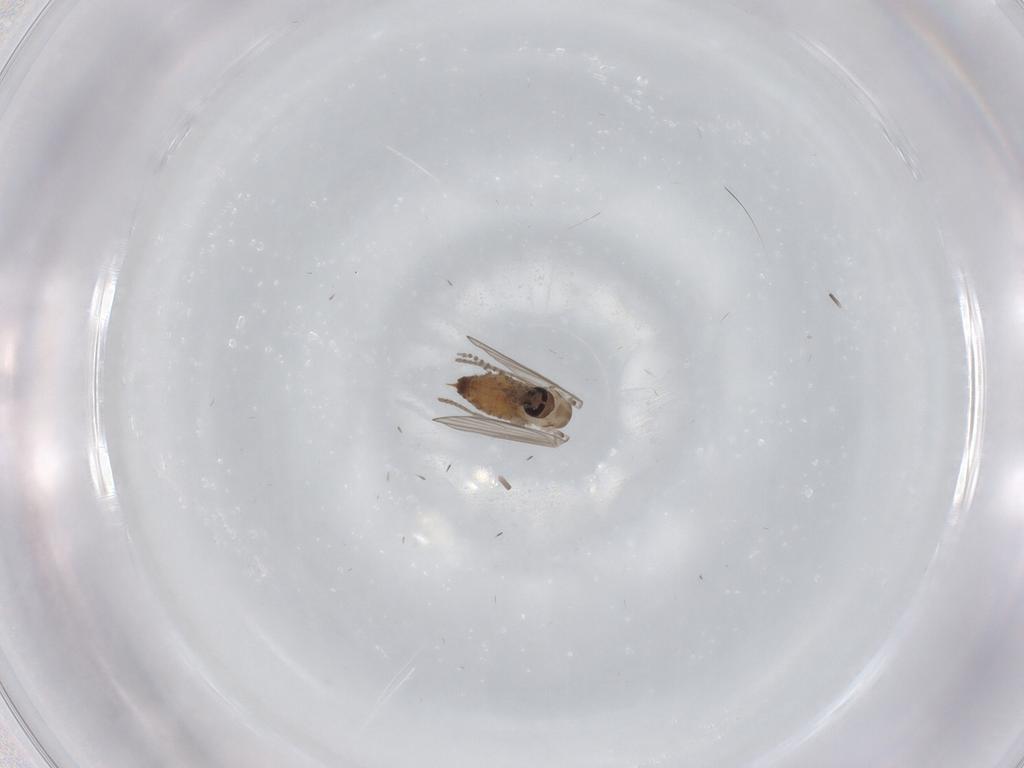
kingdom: Animalia
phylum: Arthropoda
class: Insecta
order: Diptera
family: Psychodidae
